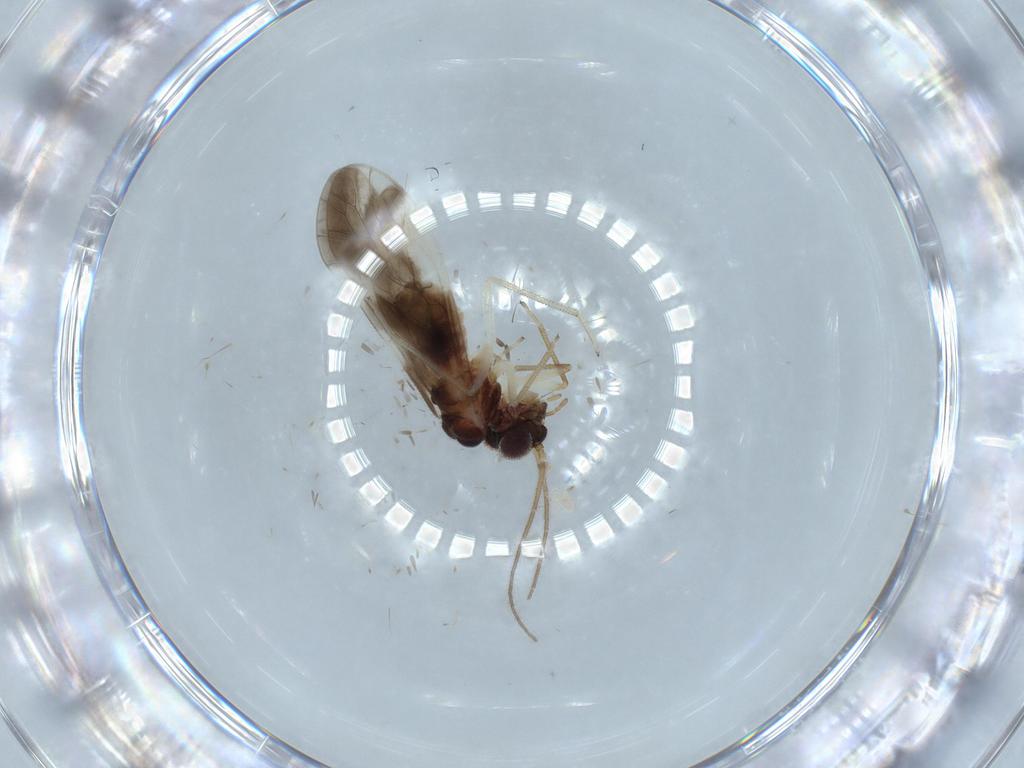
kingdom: Animalia
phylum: Arthropoda
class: Insecta
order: Psocodea
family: Caeciliusidae
